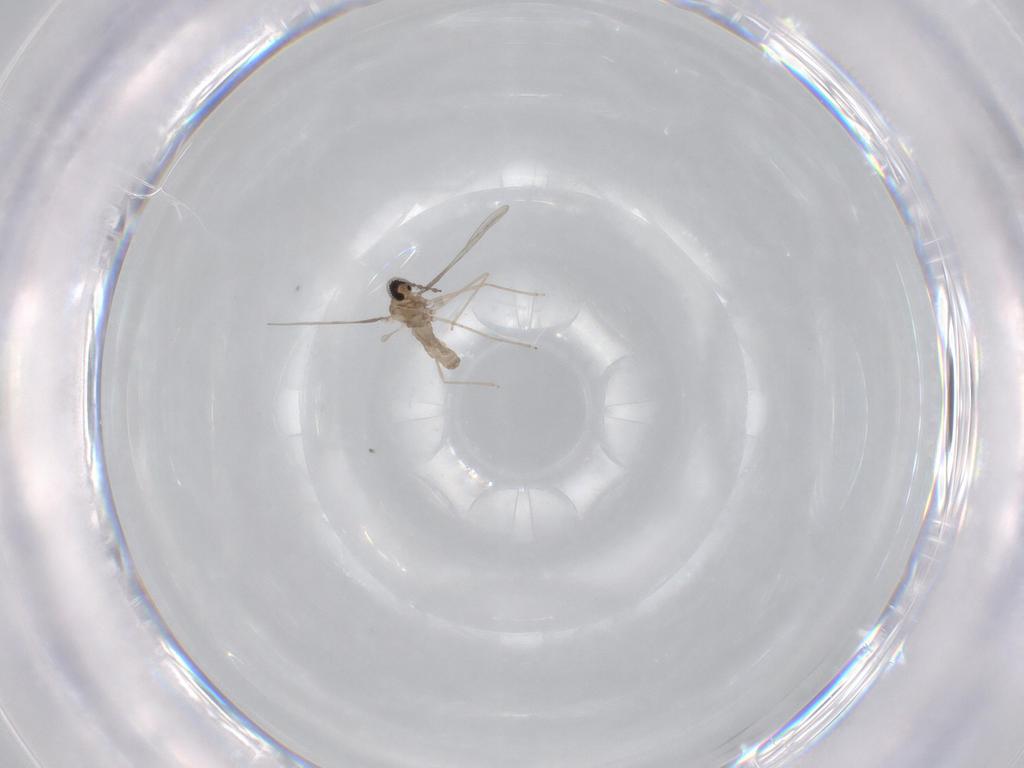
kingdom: Animalia
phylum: Arthropoda
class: Insecta
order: Diptera
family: Cecidomyiidae
